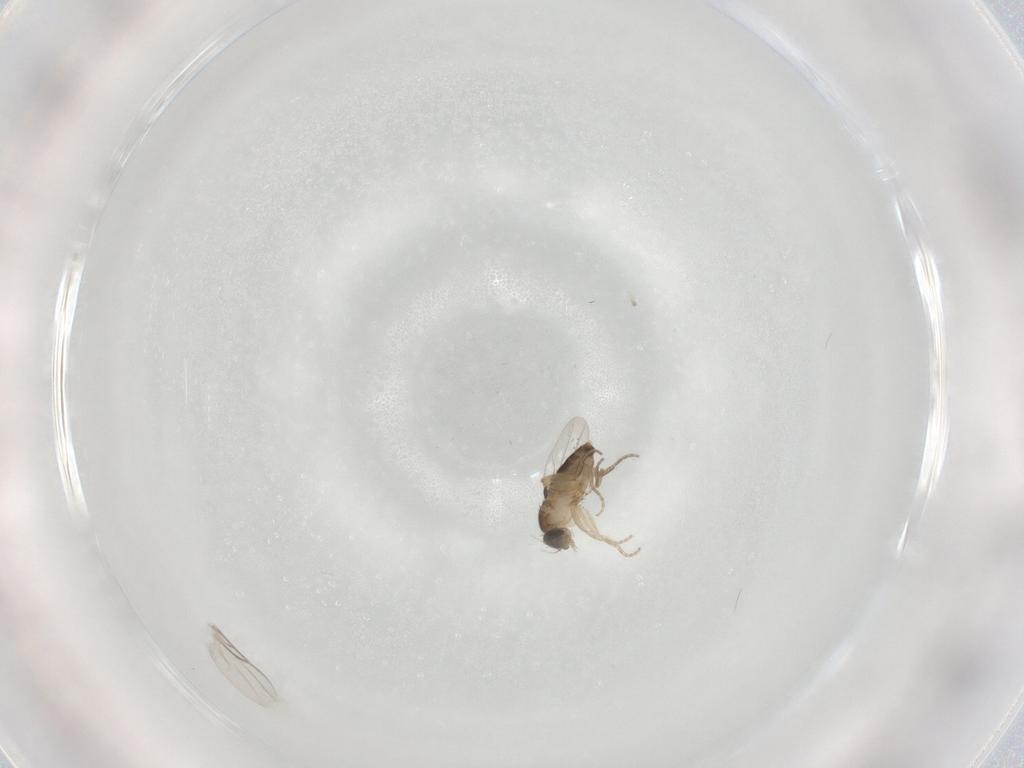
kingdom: Animalia
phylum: Arthropoda
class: Insecta
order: Diptera
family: Phoridae
